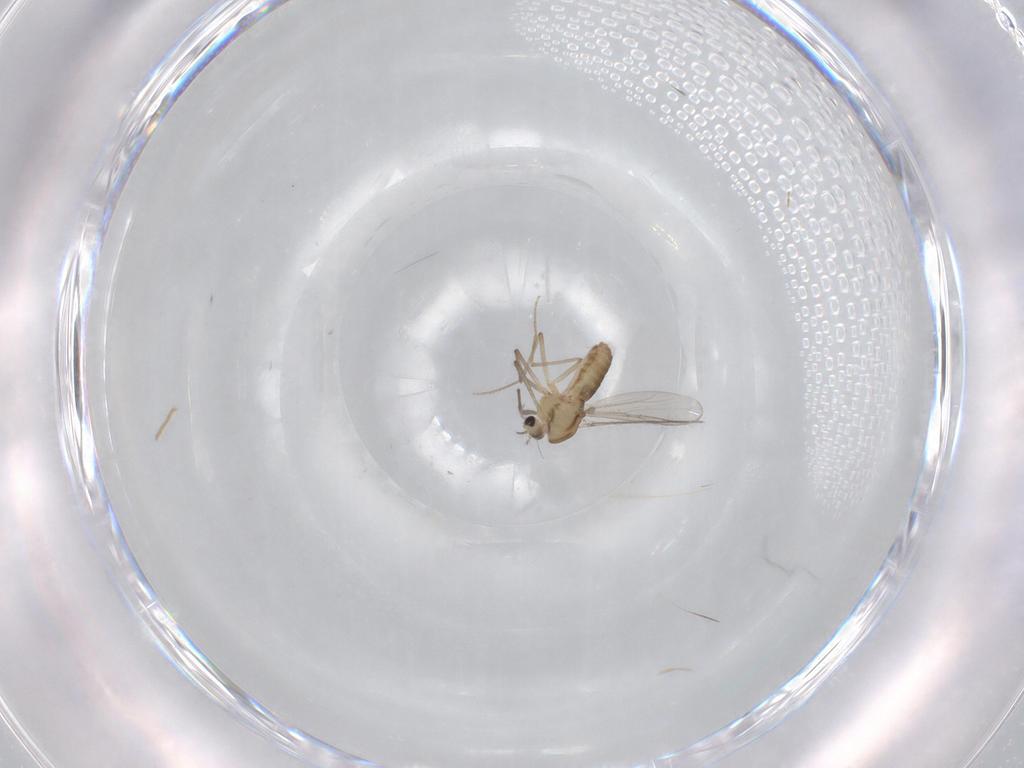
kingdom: Animalia
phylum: Arthropoda
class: Insecta
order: Diptera
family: Chironomidae
